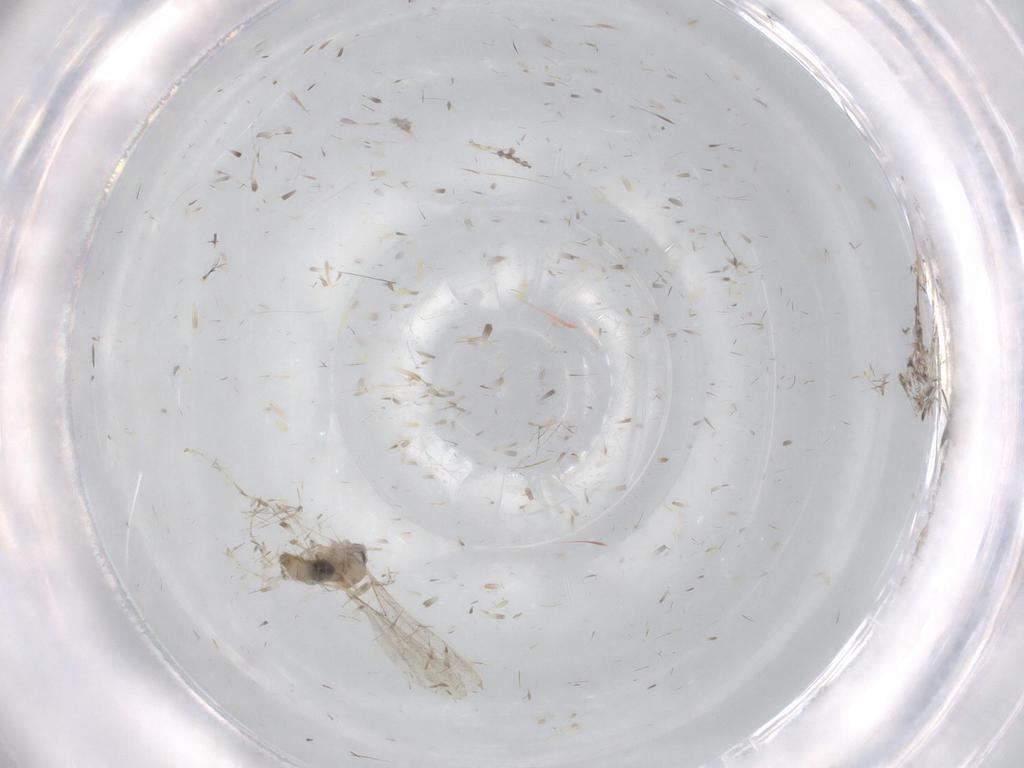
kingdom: Animalia
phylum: Arthropoda
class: Insecta
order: Diptera
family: Cecidomyiidae
